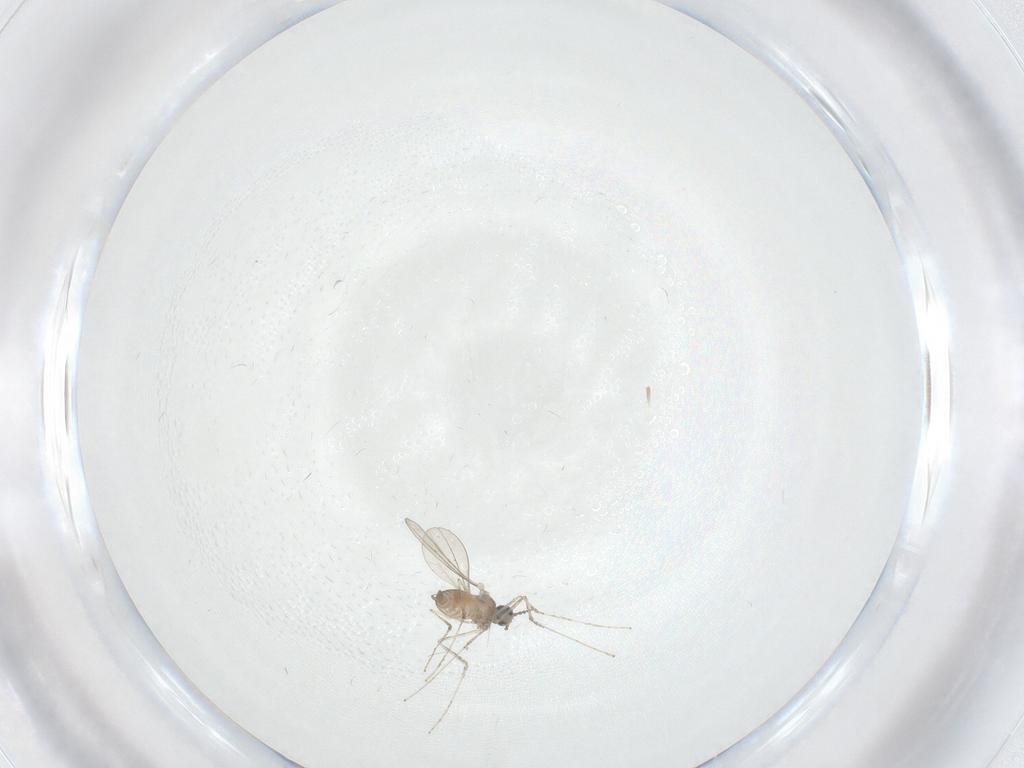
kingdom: Animalia
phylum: Arthropoda
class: Insecta
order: Diptera
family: Cecidomyiidae
